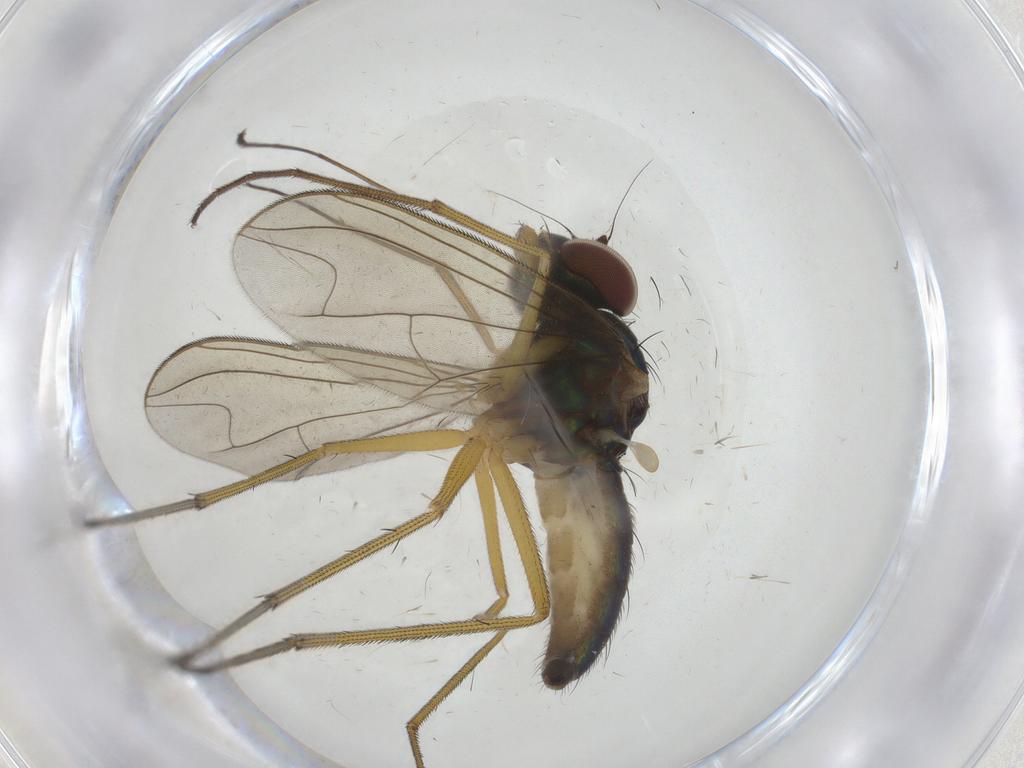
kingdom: Animalia
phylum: Arthropoda
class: Insecta
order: Diptera
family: Dolichopodidae
